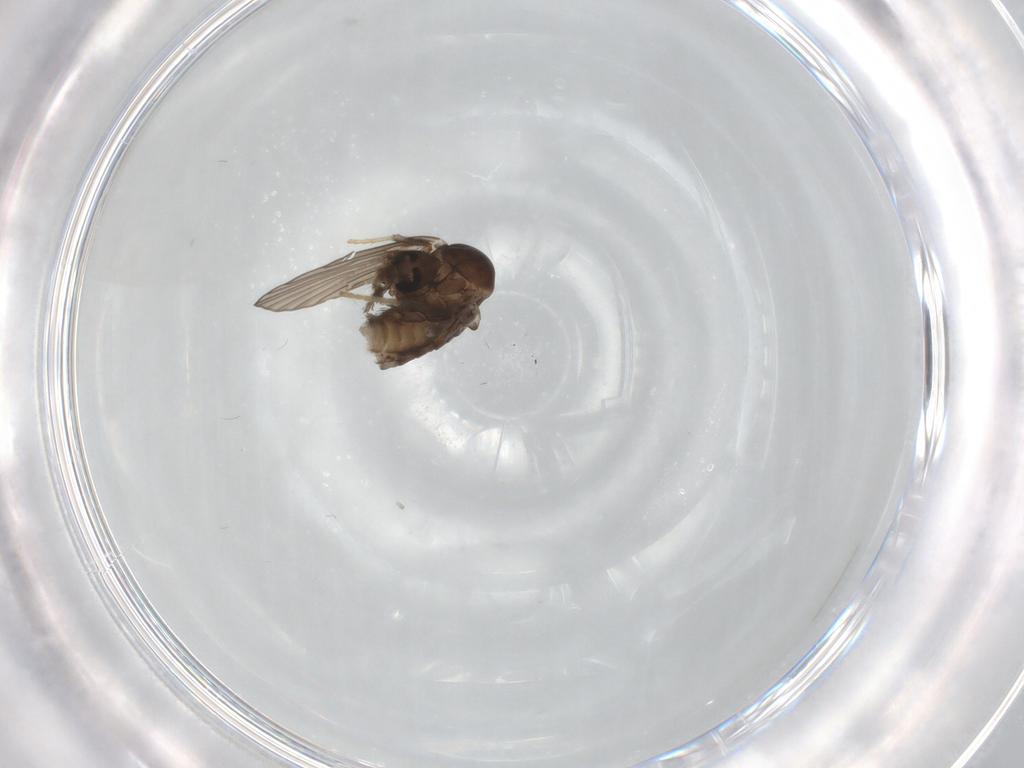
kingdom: Animalia
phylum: Arthropoda
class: Insecta
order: Diptera
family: Psychodidae
